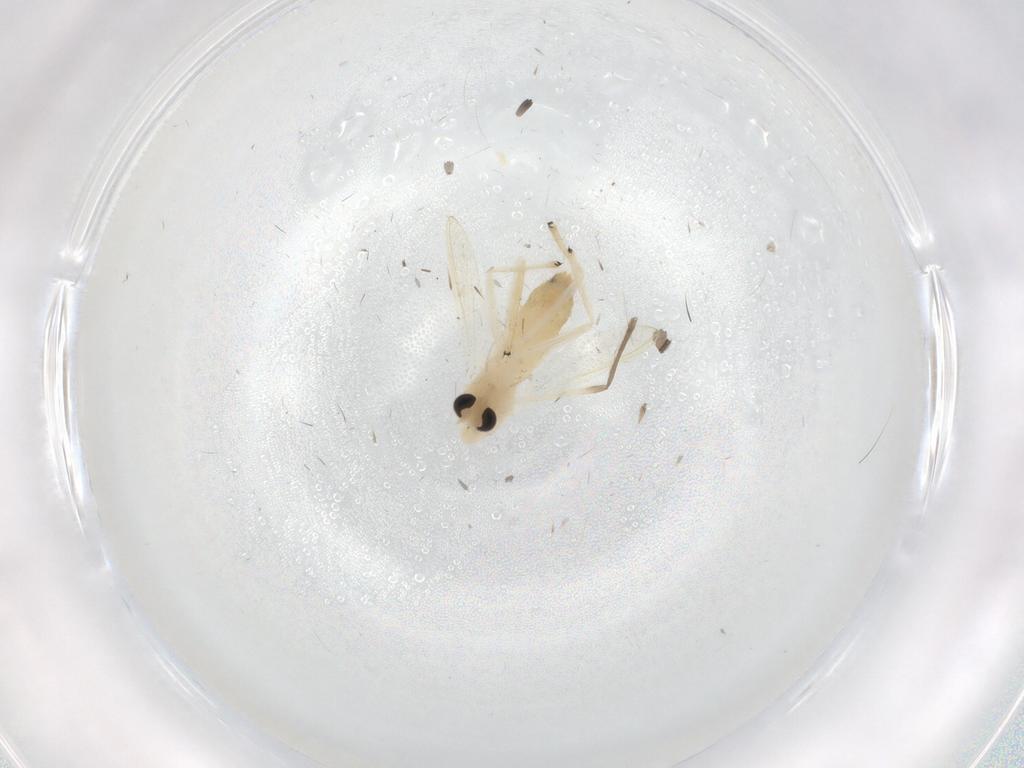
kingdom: Animalia
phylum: Arthropoda
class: Insecta
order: Diptera
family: Drosophilidae
